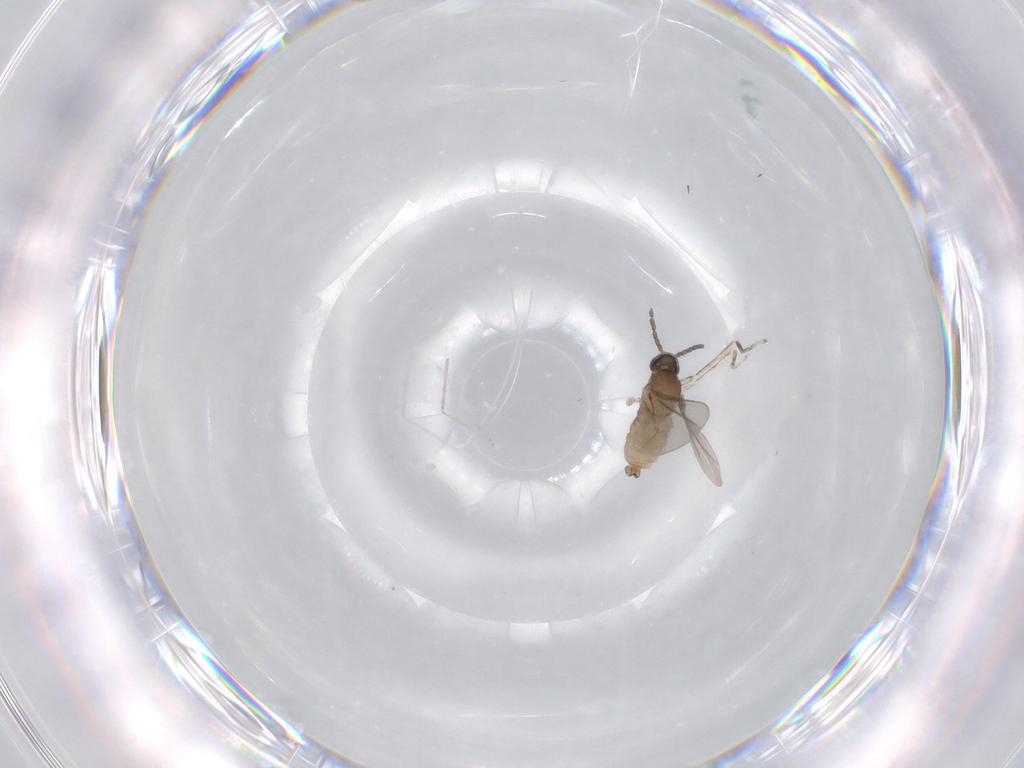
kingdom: Animalia
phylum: Arthropoda
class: Insecta
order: Diptera
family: Cecidomyiidae
